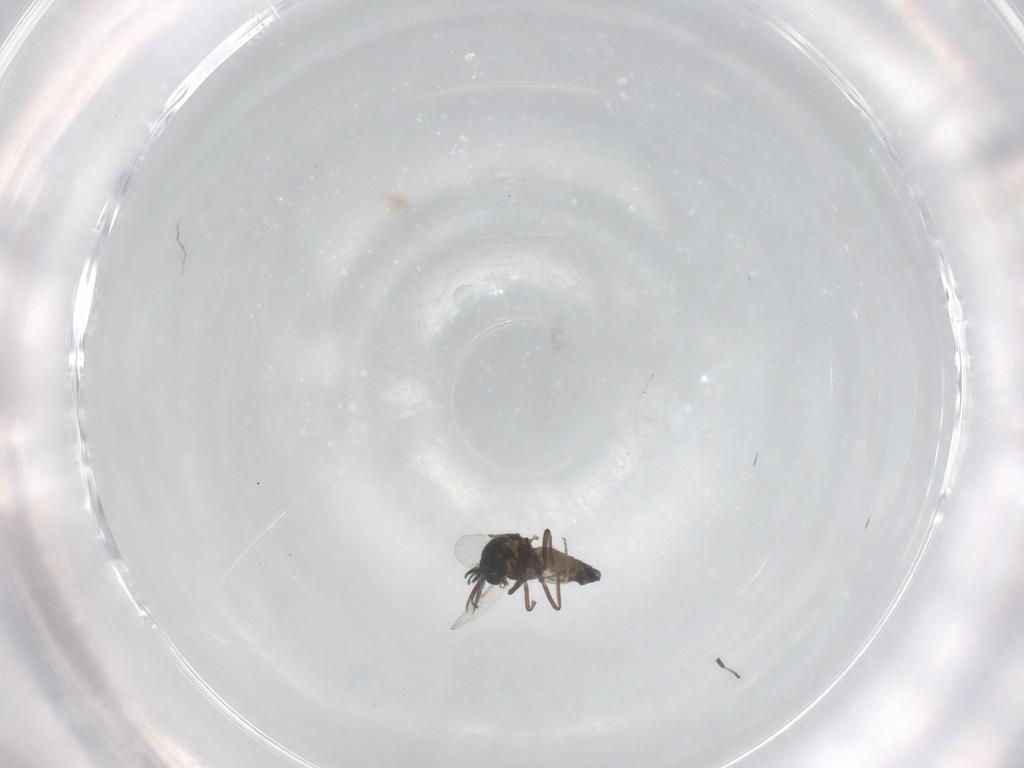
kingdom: Animalia
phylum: Arthropoda
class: Insecta
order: Diptera
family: Ceratopogonidae
